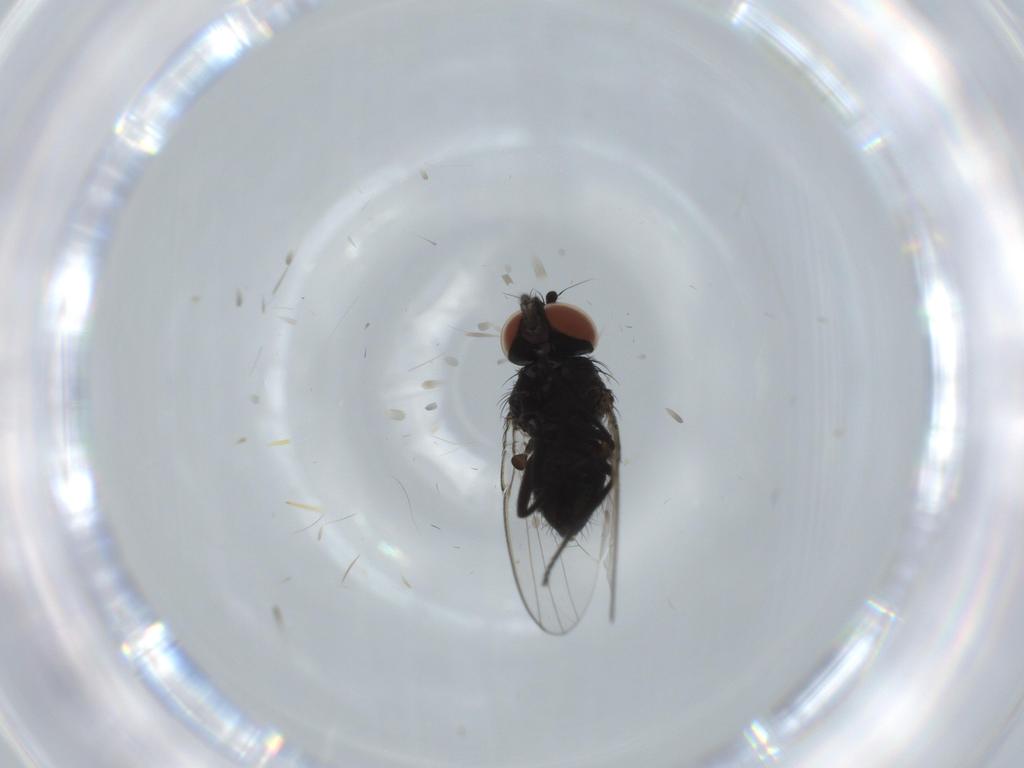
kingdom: Animalia
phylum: Arthropoda
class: Insecta
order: Diptera
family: Milichiidae
